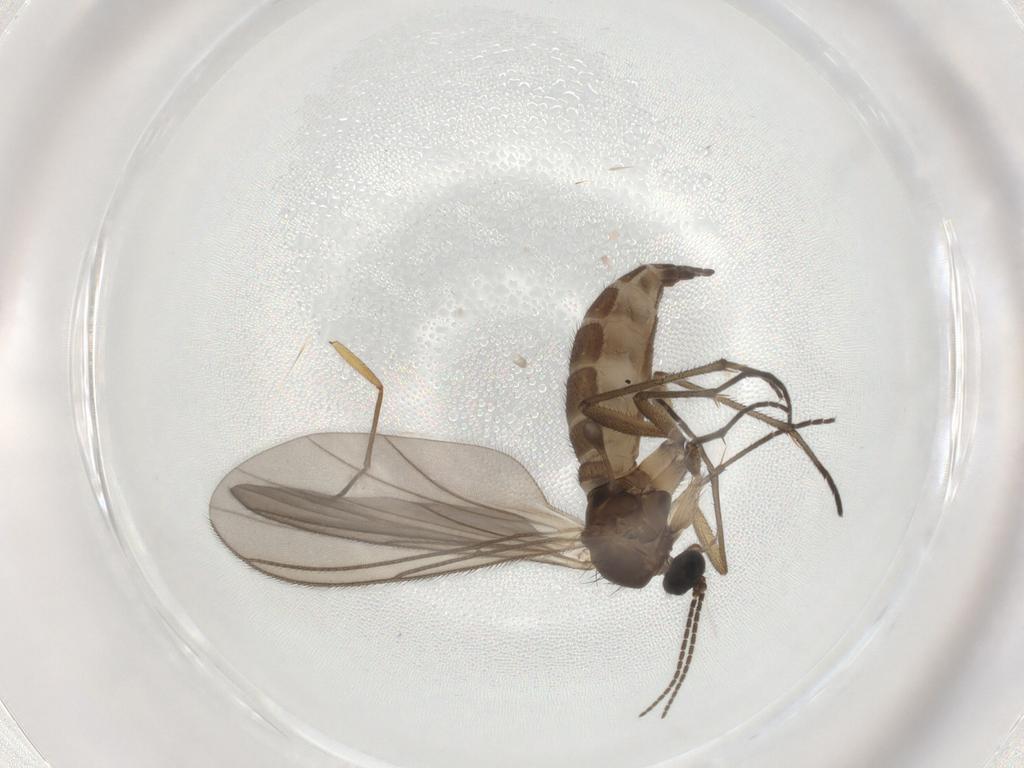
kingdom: Animalia
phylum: Arthropoda
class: Insecta
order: Diptera
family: Sciaridae
